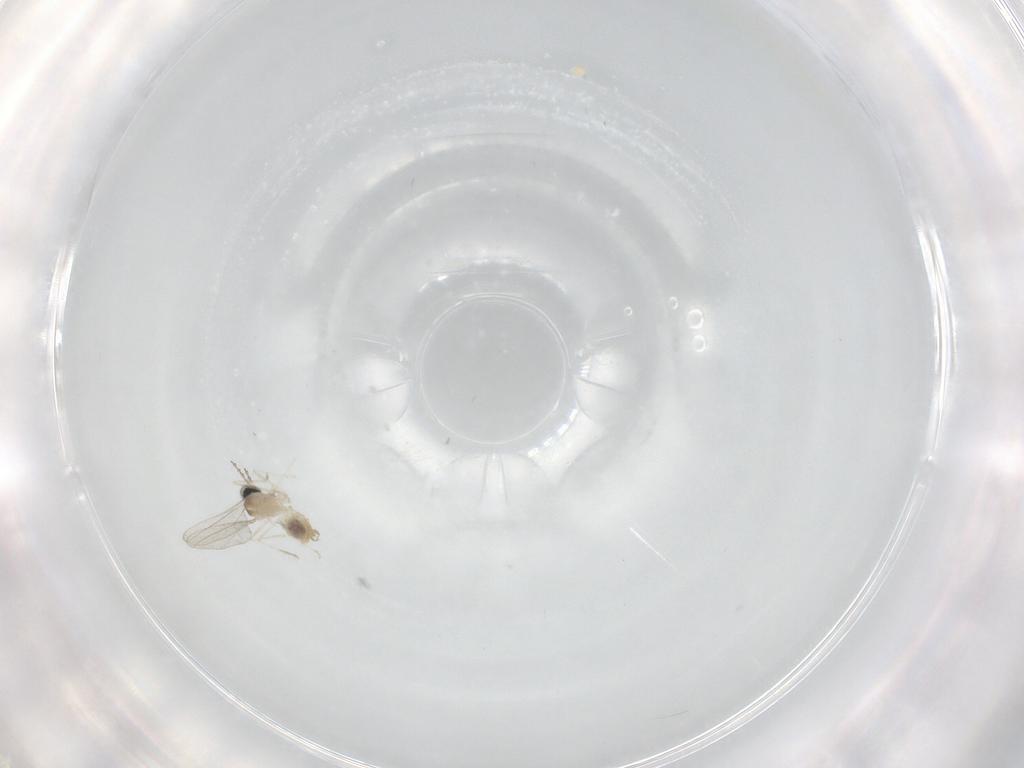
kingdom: Animalia
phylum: Arthropoda
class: Insecta
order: Diptera
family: Cecidomyiidae
